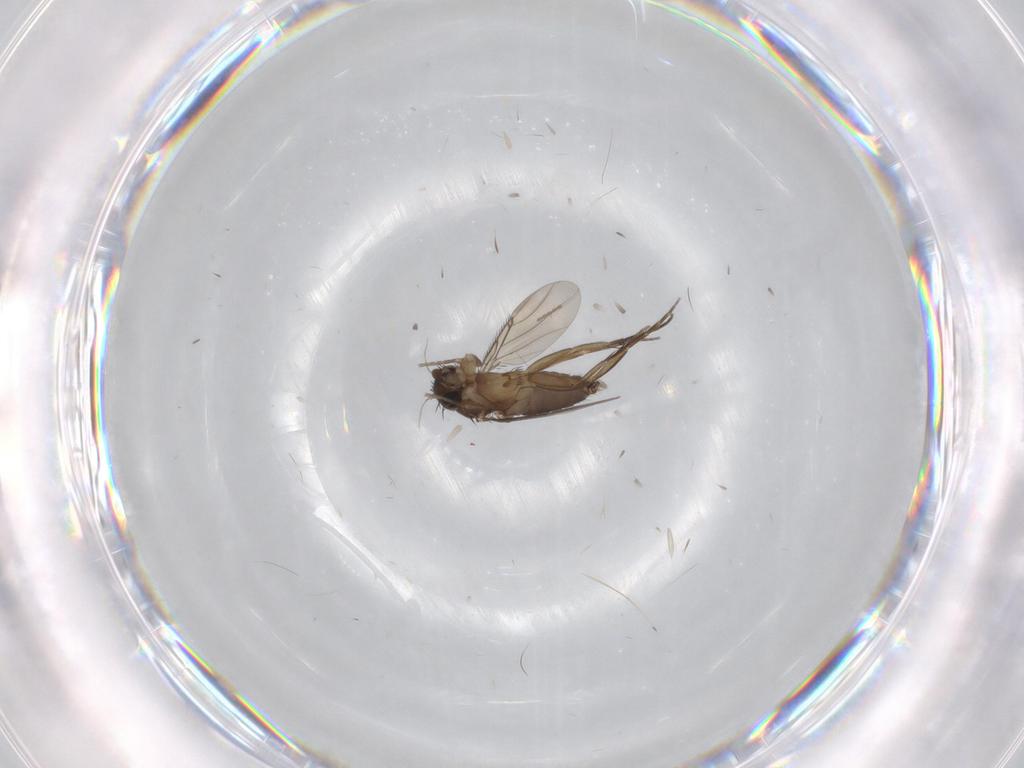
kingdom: Animalia
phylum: Arthropoda
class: Insecta
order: Diptera
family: Phoridae
